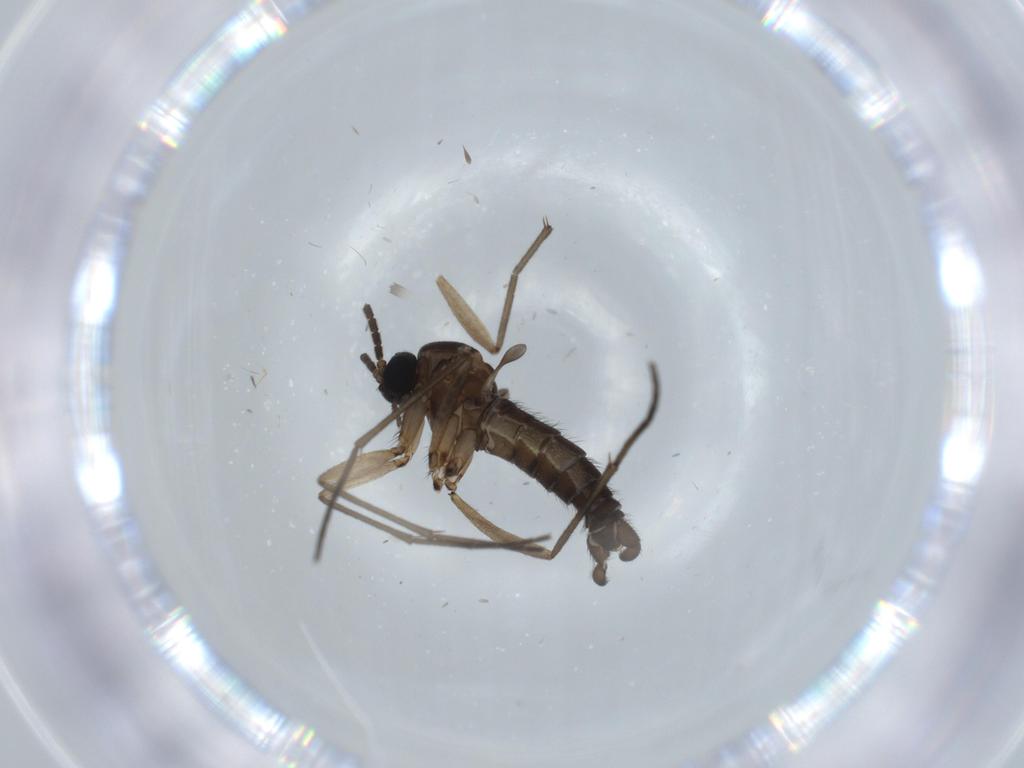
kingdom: Animalia
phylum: Arthropoda
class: Insecta
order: Diptera
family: Sciaridae
